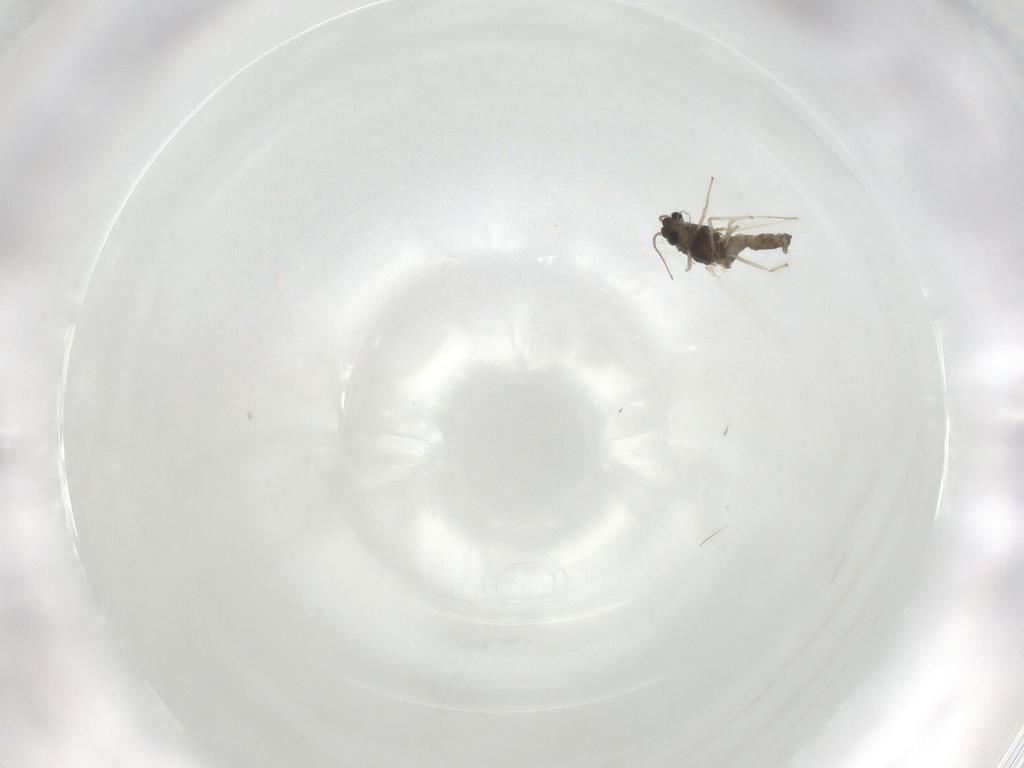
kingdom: Animalia
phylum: Arthropoda
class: Insecta
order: Diptera
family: Chironomidae
